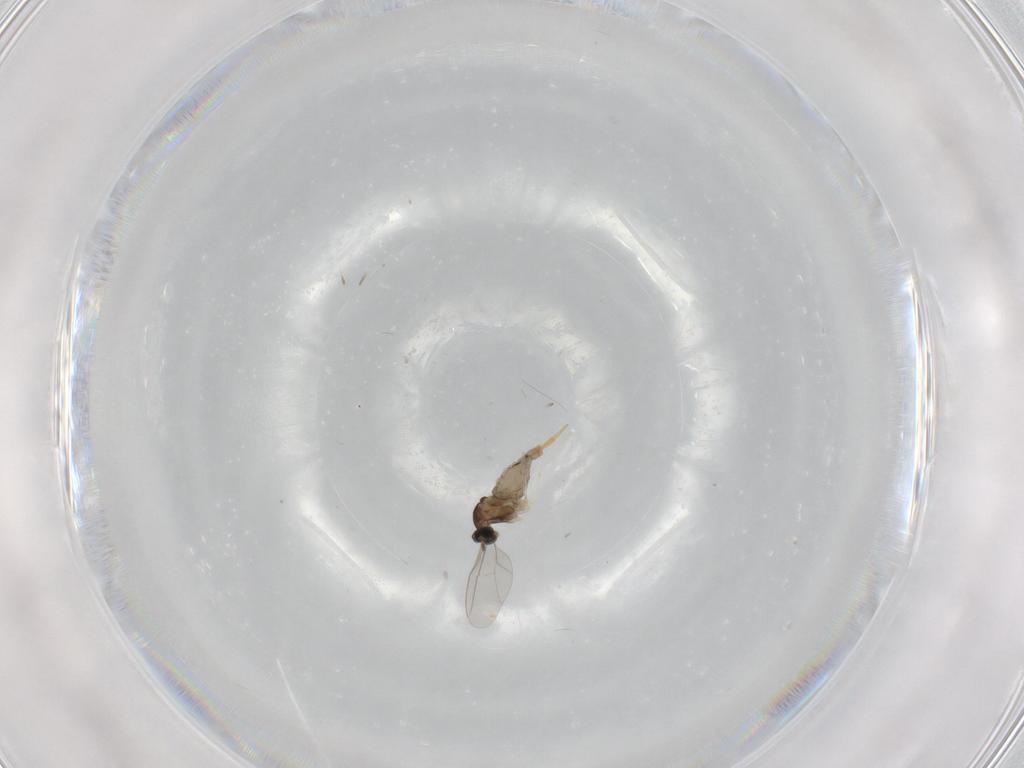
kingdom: Animalia
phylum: Arthropoda
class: Insecta
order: Diptera
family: Cecidomyiidae
